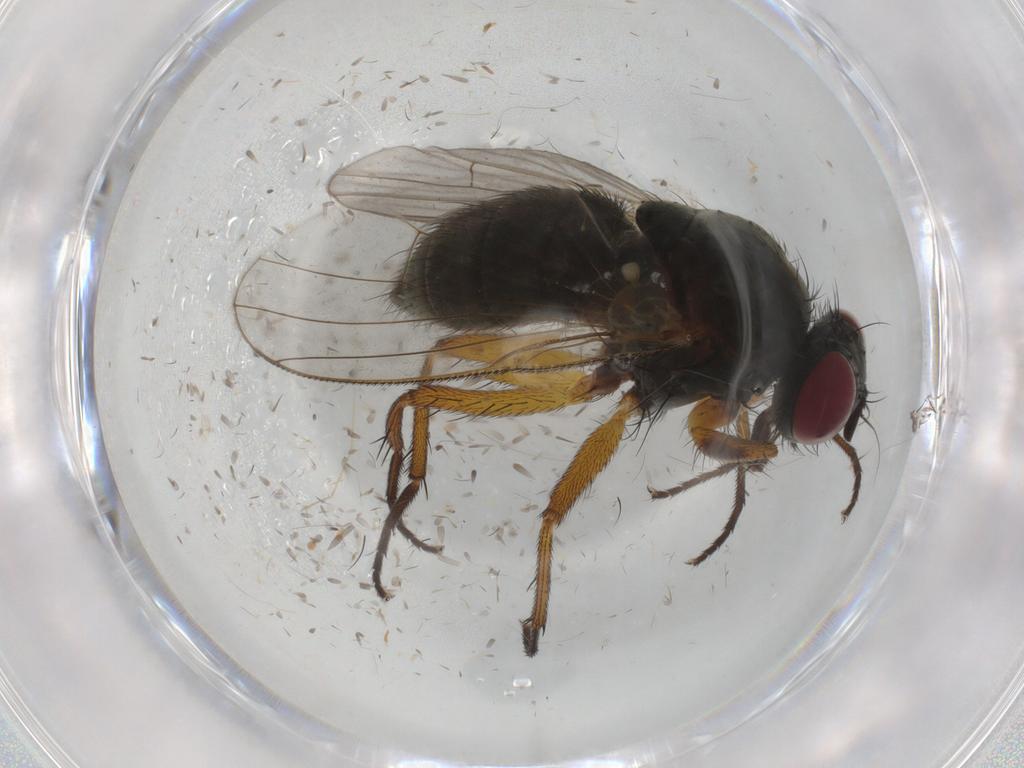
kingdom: Animalia
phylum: Arthropoda
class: Insecta
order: Diptera
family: Muscidae
